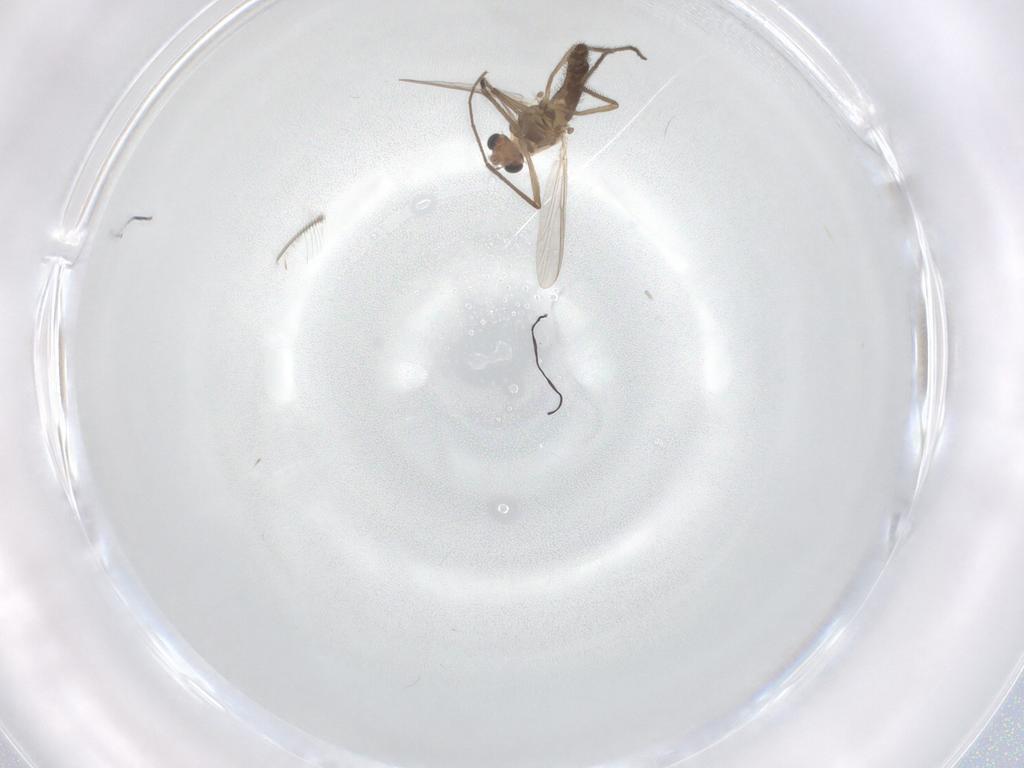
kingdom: Animalia
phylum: Arthropoda
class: Insecta
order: Diptera
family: Chironomidae
